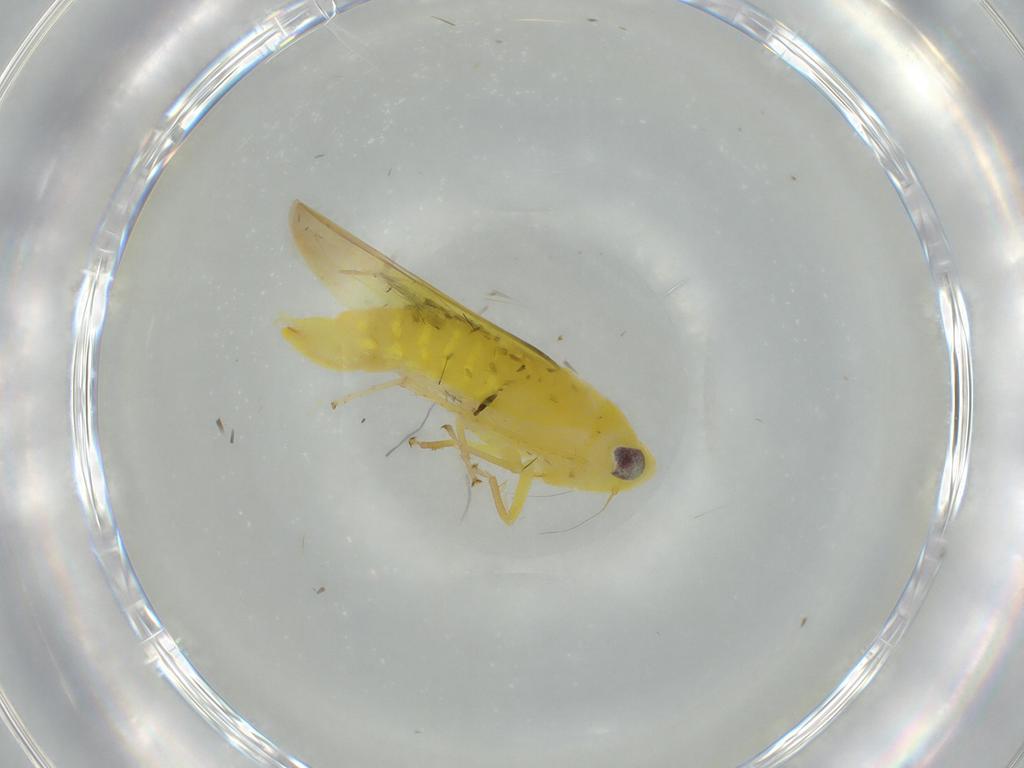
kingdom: Animalia
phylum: Arthropoda
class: Insecta
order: Hemiptera
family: Cicadellidae
